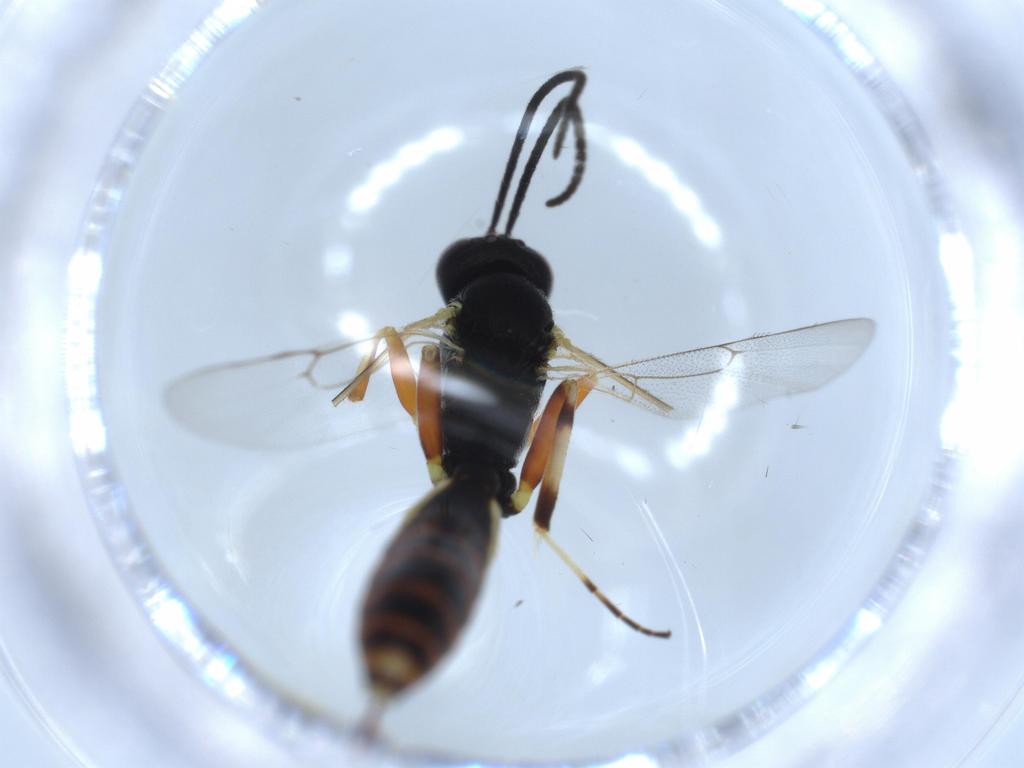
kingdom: Animalia
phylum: Arthropoda
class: Insecta
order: Hymenoptera
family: Ichneumonidae
